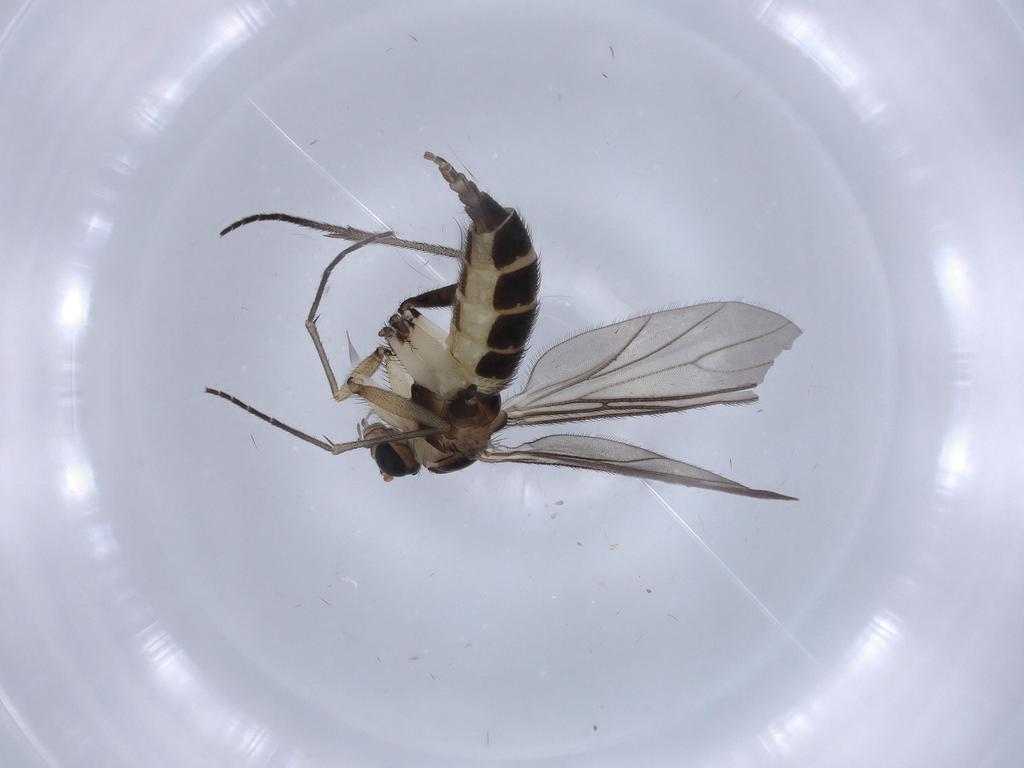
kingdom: Animalia
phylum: Arthropoda
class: Insecta
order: Diptera
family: Sciaridae
